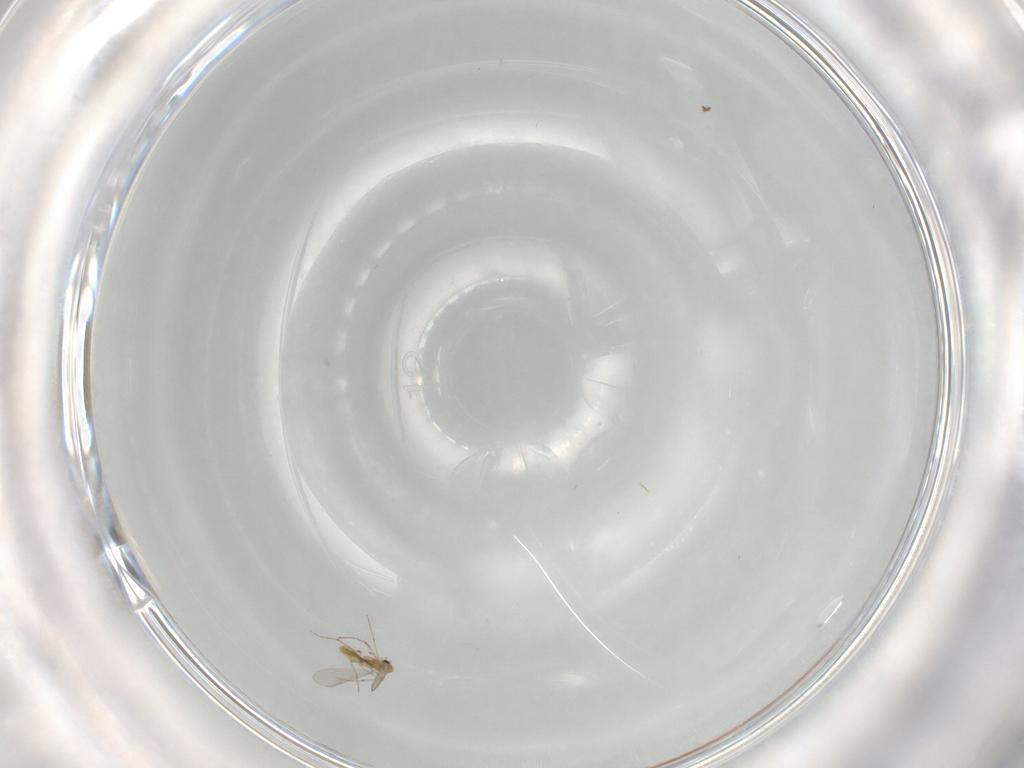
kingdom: Animalia
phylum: Arthropoda
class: Insecta
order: Diptera
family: Chironomidae
